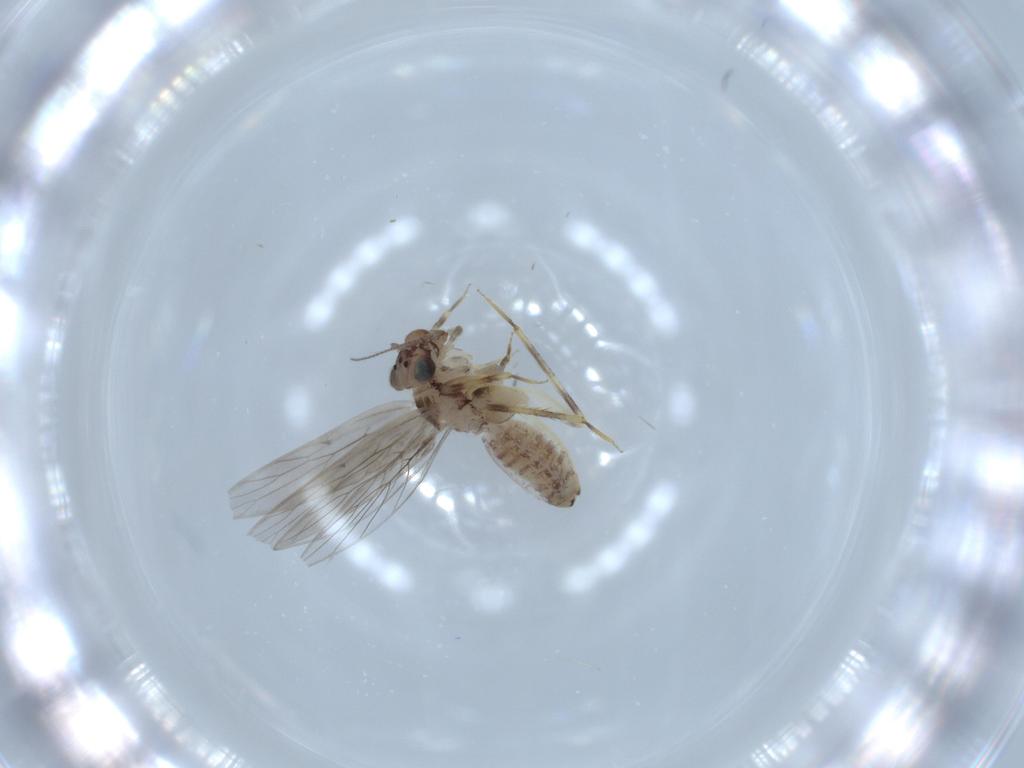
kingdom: Animalia
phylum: Arthropoda
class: Insecta
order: Psocodea
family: Lepidopsocidae
